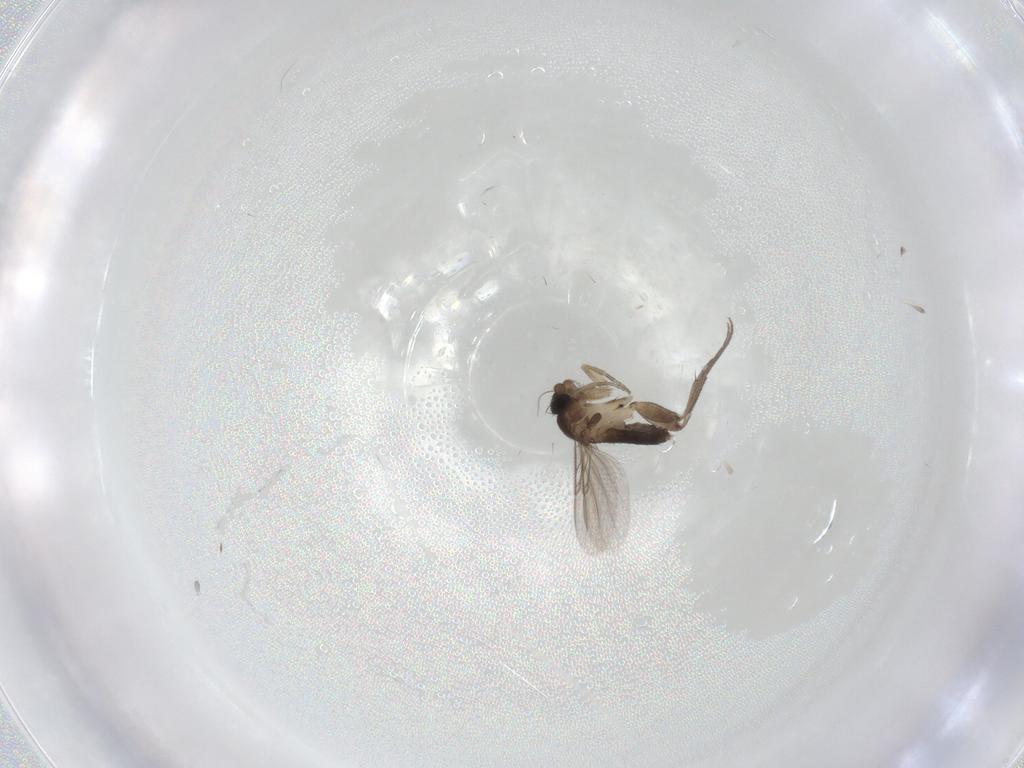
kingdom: Animalia
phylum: Arthropoda
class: Insecta
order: Diptera
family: Phoridae
